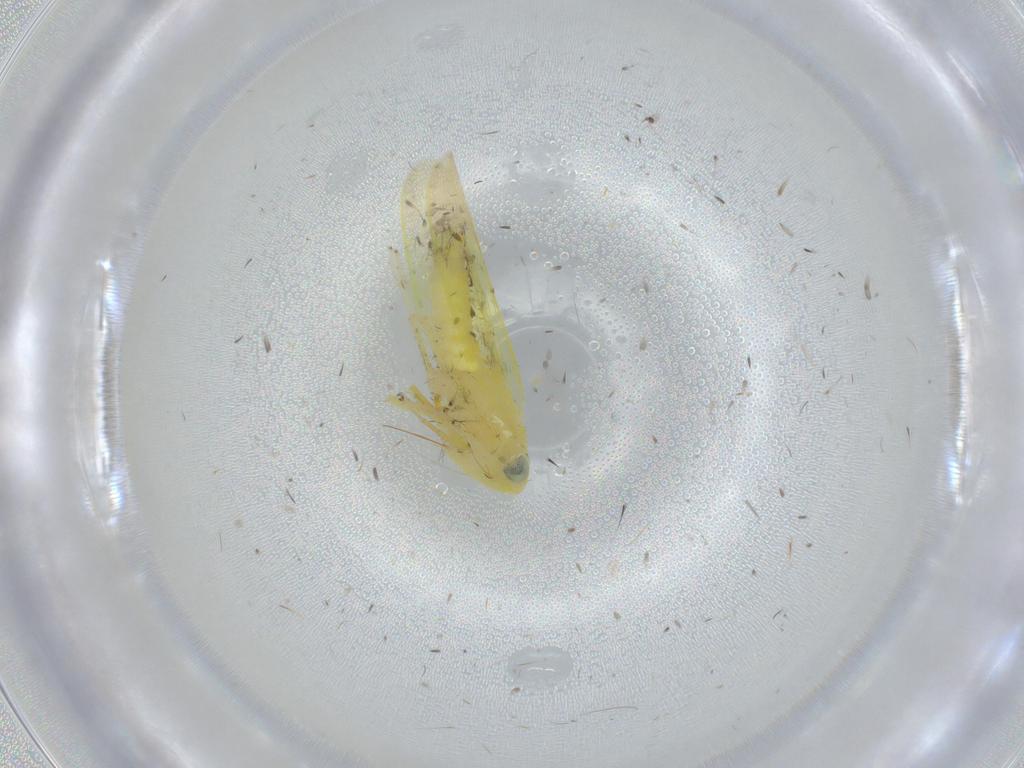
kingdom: Animalia
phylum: Arthropoda
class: Insecta
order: Hemiptera
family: Cicadellidae
